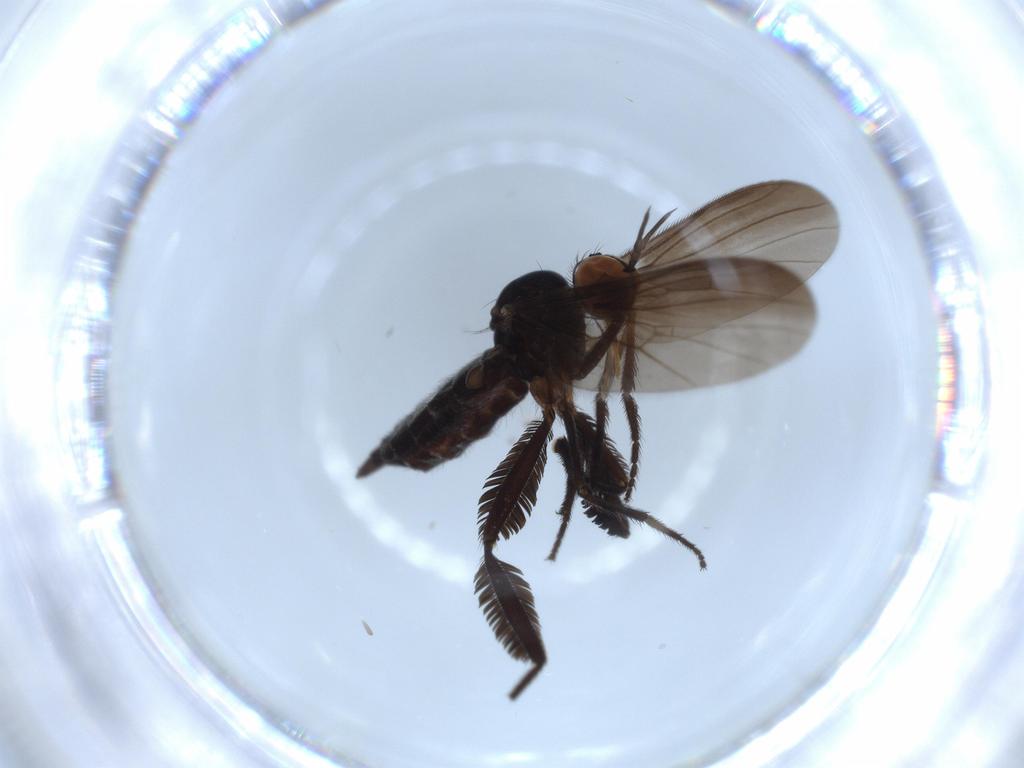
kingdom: Animalia
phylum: Arthropoda
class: Insecta
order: Diptera
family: Empididae
